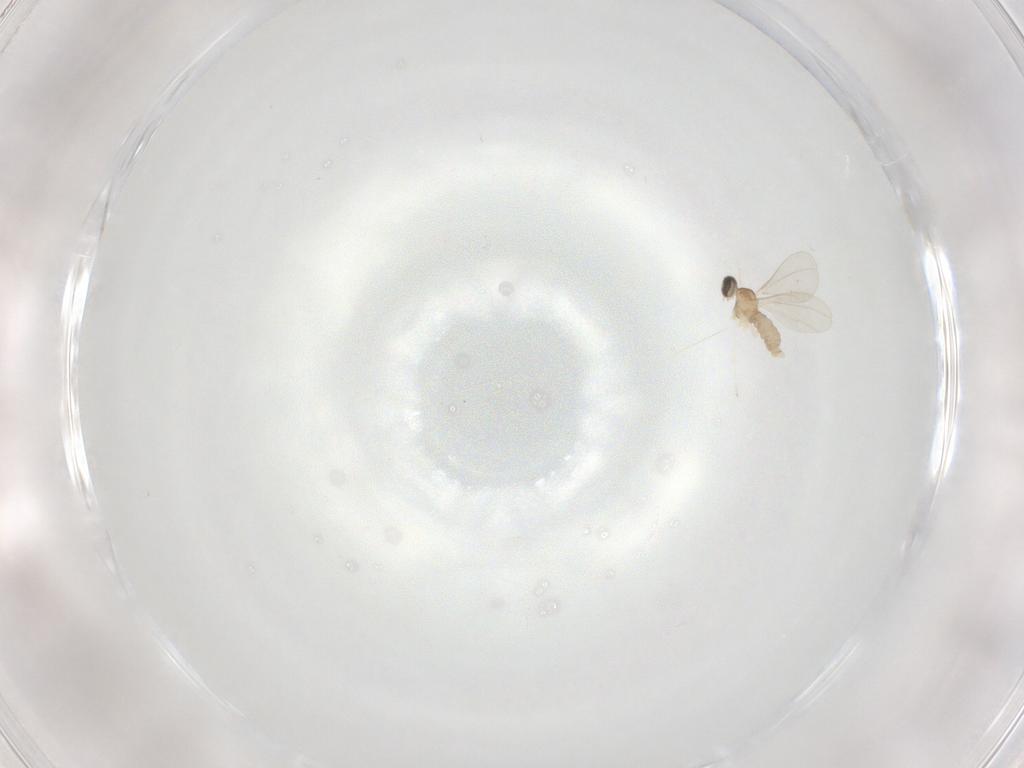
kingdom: Animalia
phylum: Arthropoda
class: Insecta
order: Diptera
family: Cecidomyiidae
